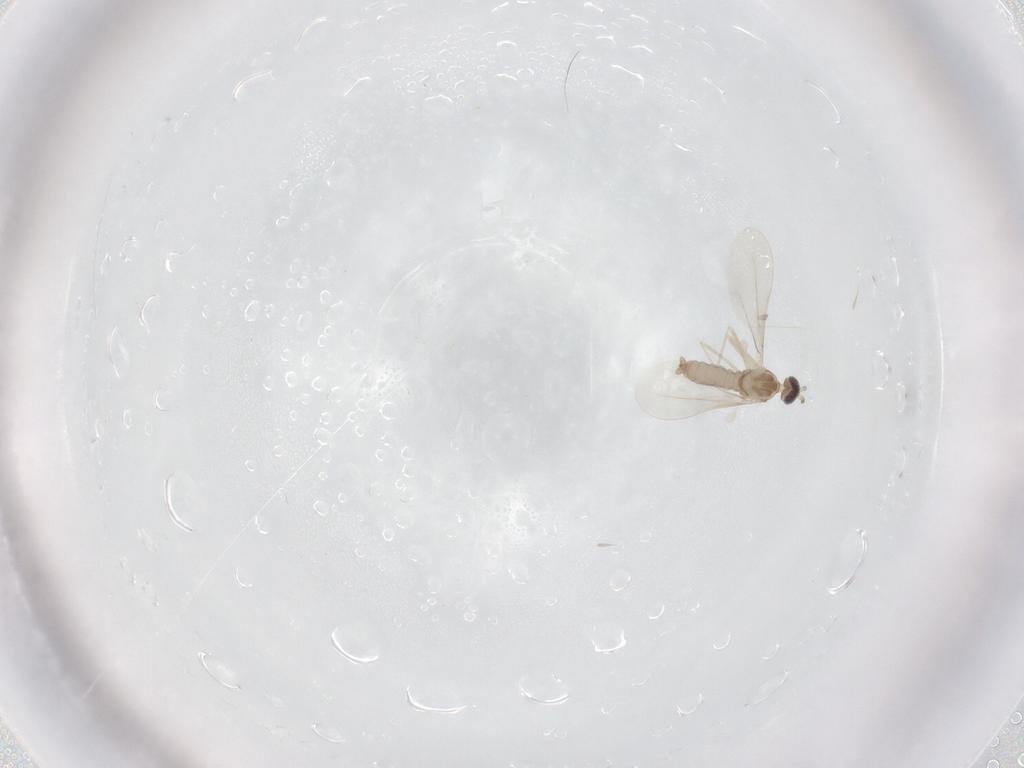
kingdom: Animalia
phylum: Arthropoda
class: Insecta
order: Diptera
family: Cecidomyiidae
